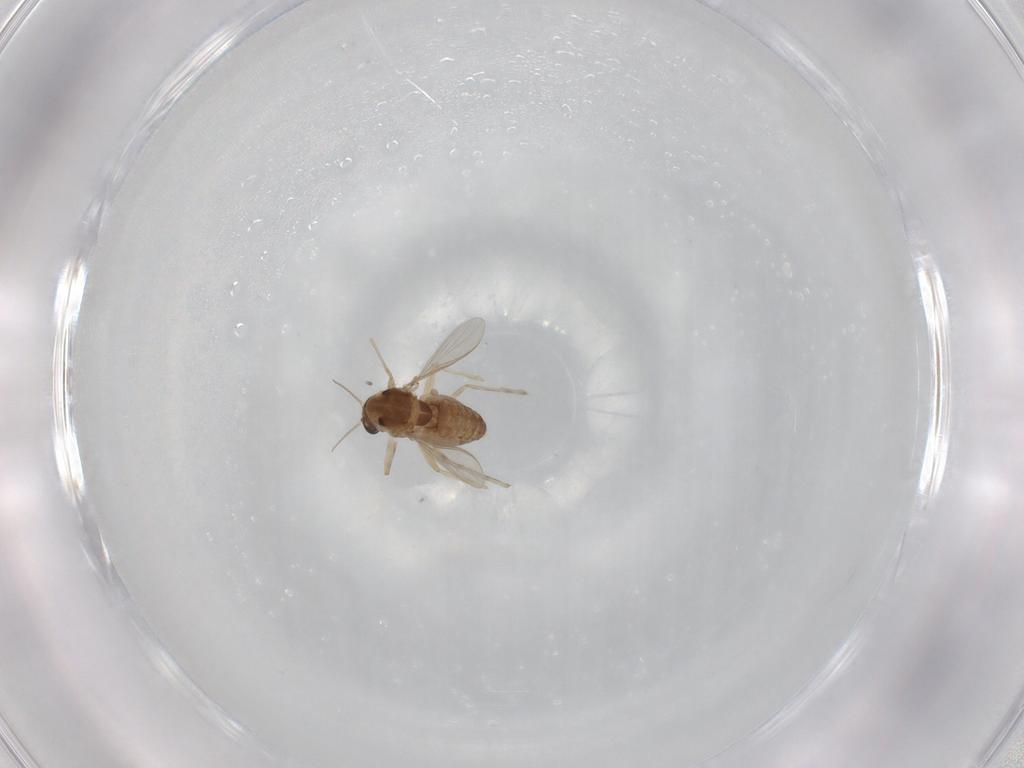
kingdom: Animalia
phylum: Arthropoda
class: Insecta
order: Diptera
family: Chironomidae
